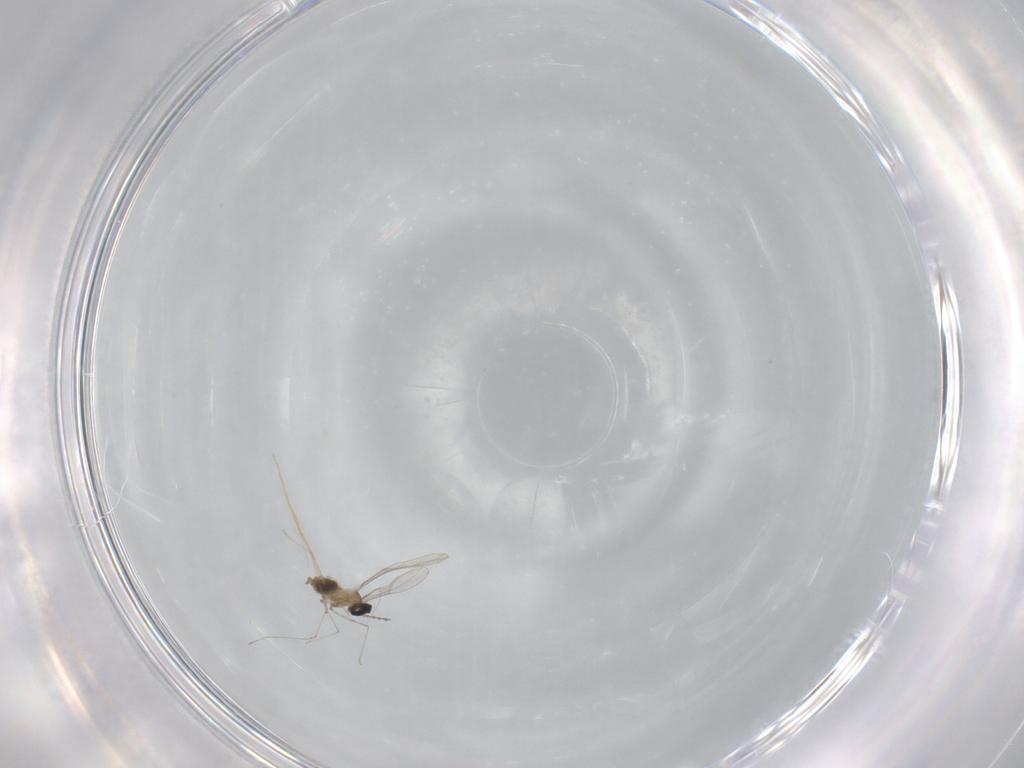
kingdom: Animalia
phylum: Arthropoda
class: Insecta
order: Diptera
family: Cecidomyiidae
